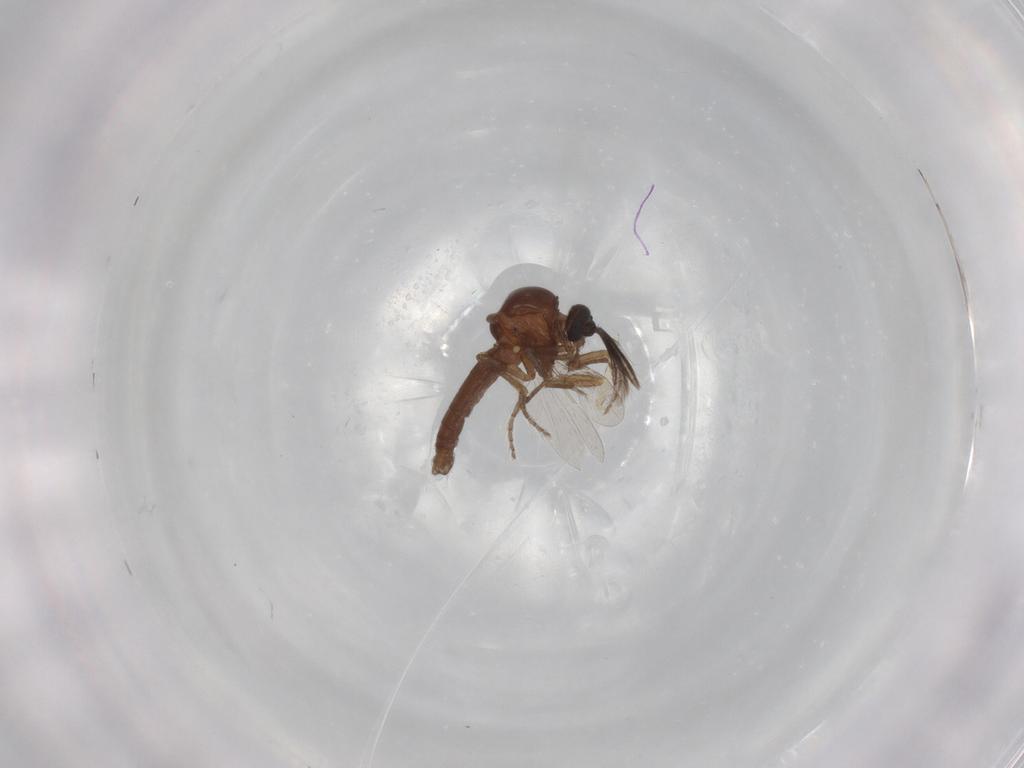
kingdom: Animalia
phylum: Arthropoda
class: Insecta
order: Diptera
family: Ceratopogonidae
